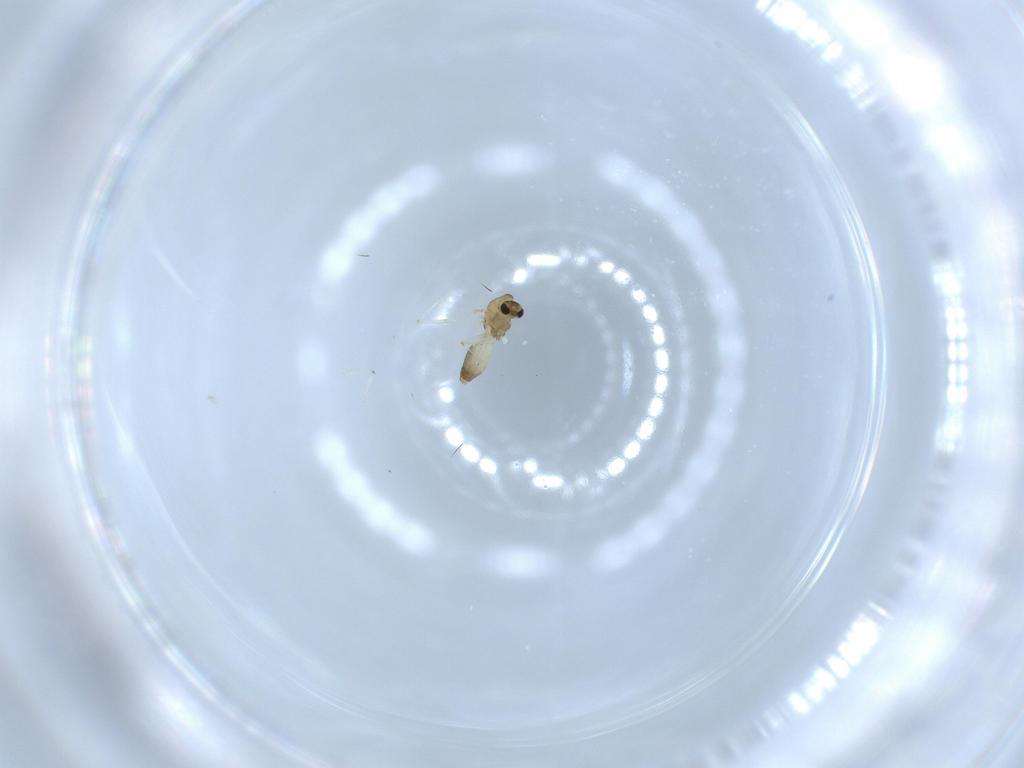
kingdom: Animalia
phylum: Arthropoda
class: Insecta
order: Diptera
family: Chironomidae
